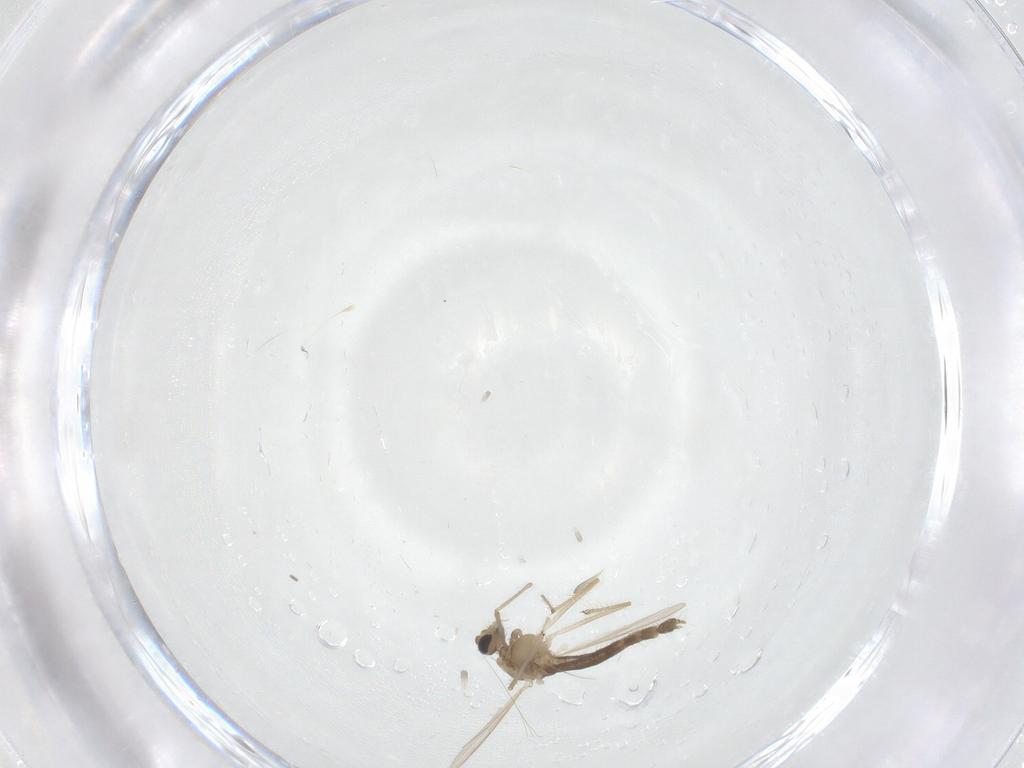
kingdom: Animalia
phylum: Arthropoda
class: Insecta
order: Diptera
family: Chironomidae
